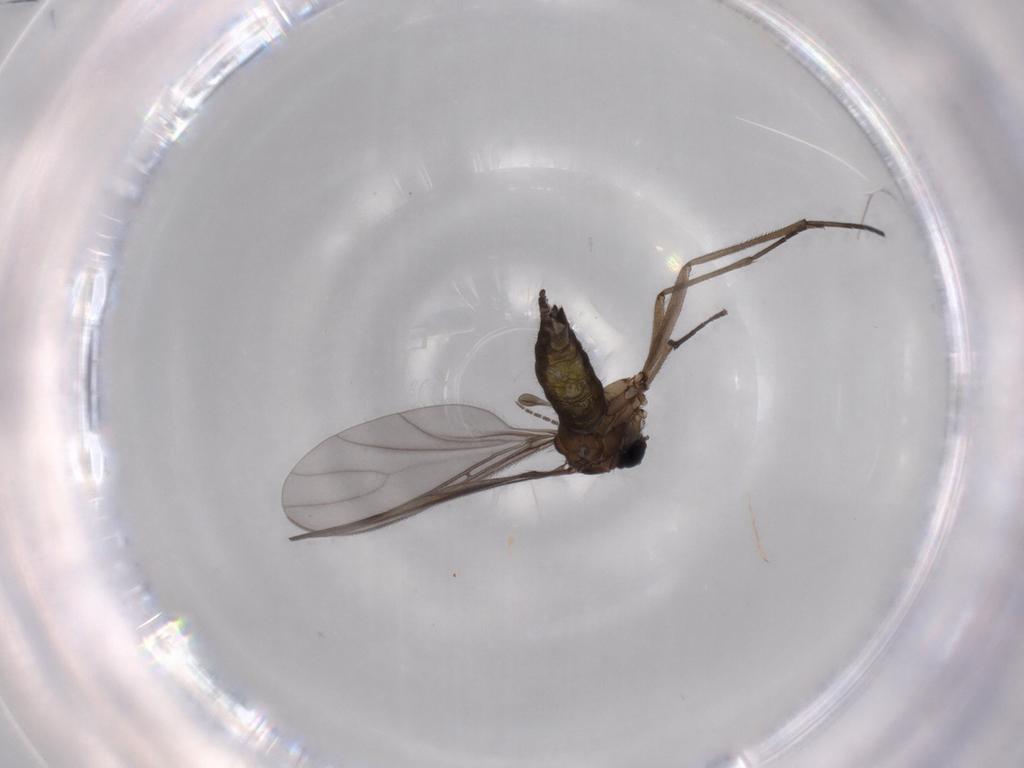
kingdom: Animalia
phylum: Arthropoda
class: Insecta
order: Diptera
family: Sciaridae
